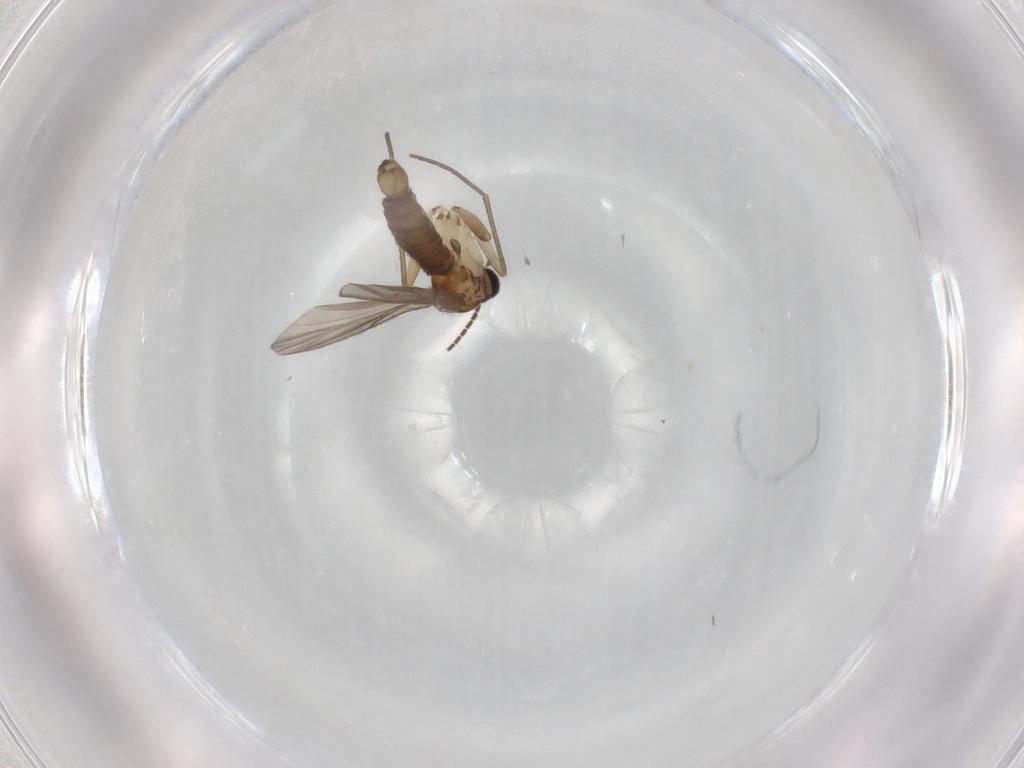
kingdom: Animalia
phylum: Arthropoda
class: Insecta
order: Diptera
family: Sciaridae
